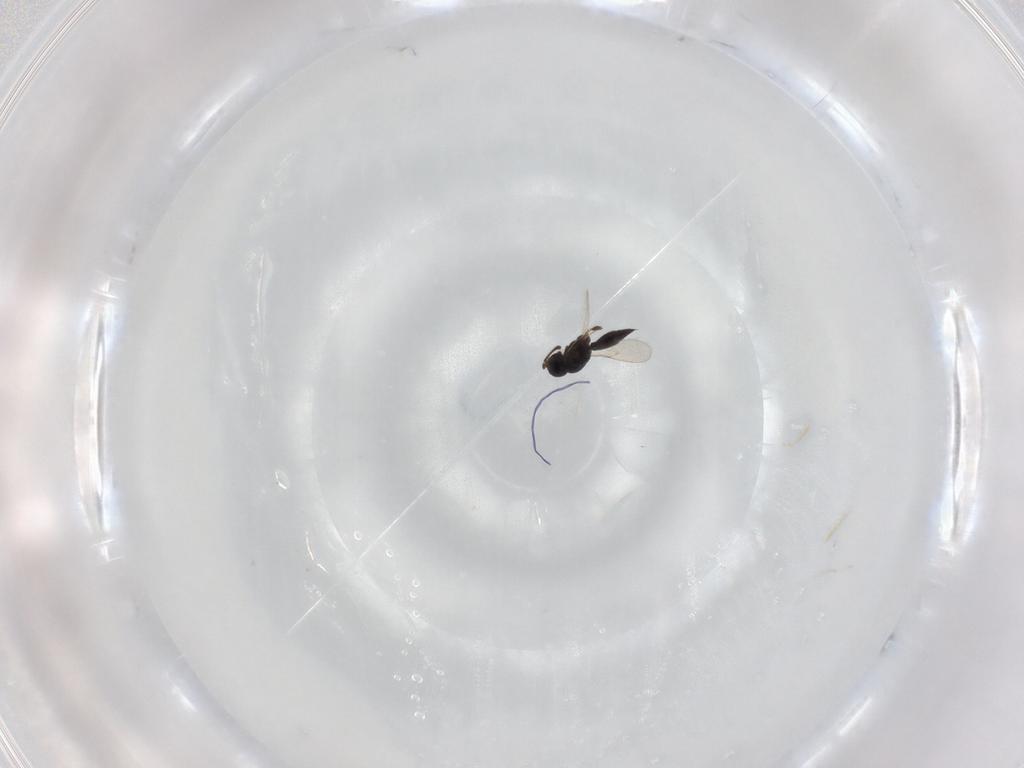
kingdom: Animalia
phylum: Arthropoda
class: Insecta
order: Hymenoptera
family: Scelionidae
